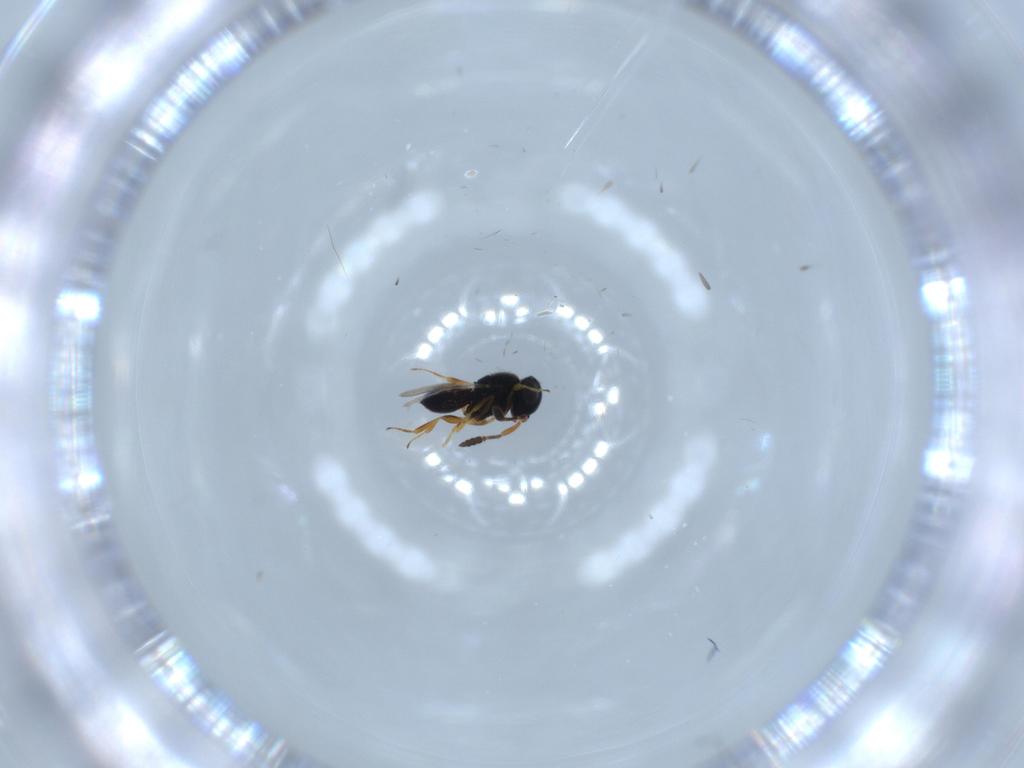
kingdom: Animalia
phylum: Arthropoda
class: Insecta
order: Hymenoptera
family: Scelionidae
